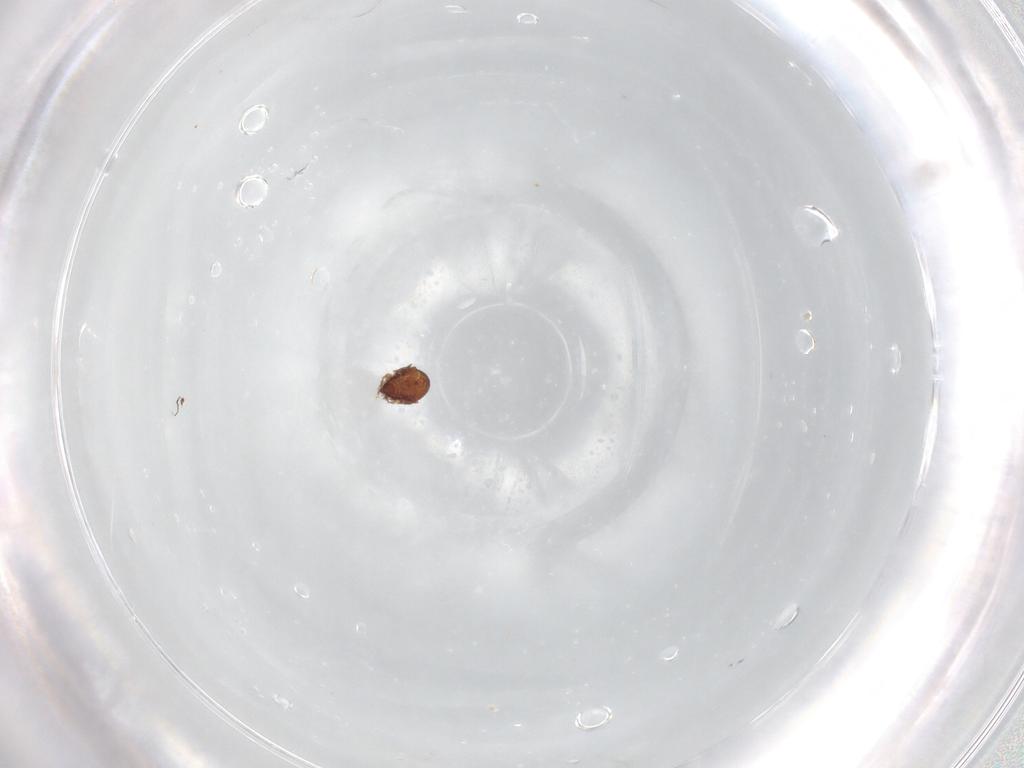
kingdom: Animalia
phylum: Arthropoda
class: Arachnida
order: Sarcoptiformes
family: Ceratozetidae
